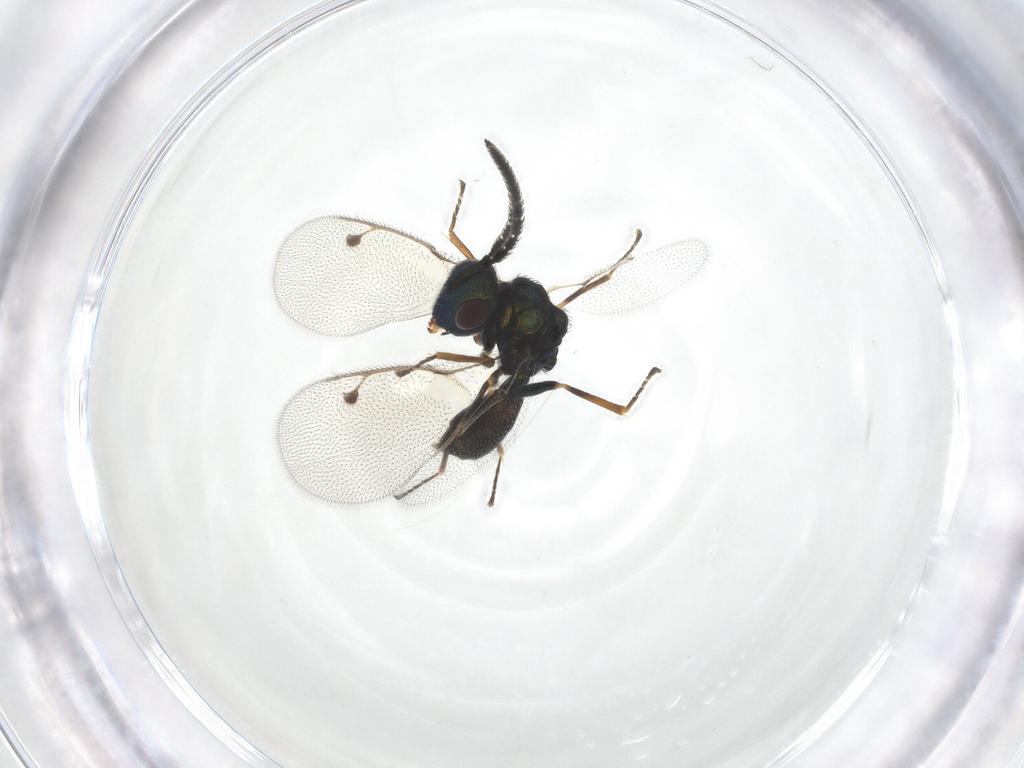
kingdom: Animalia
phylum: Arthropoda
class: Insecta
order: Hymenoptera
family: Pteromalidae
